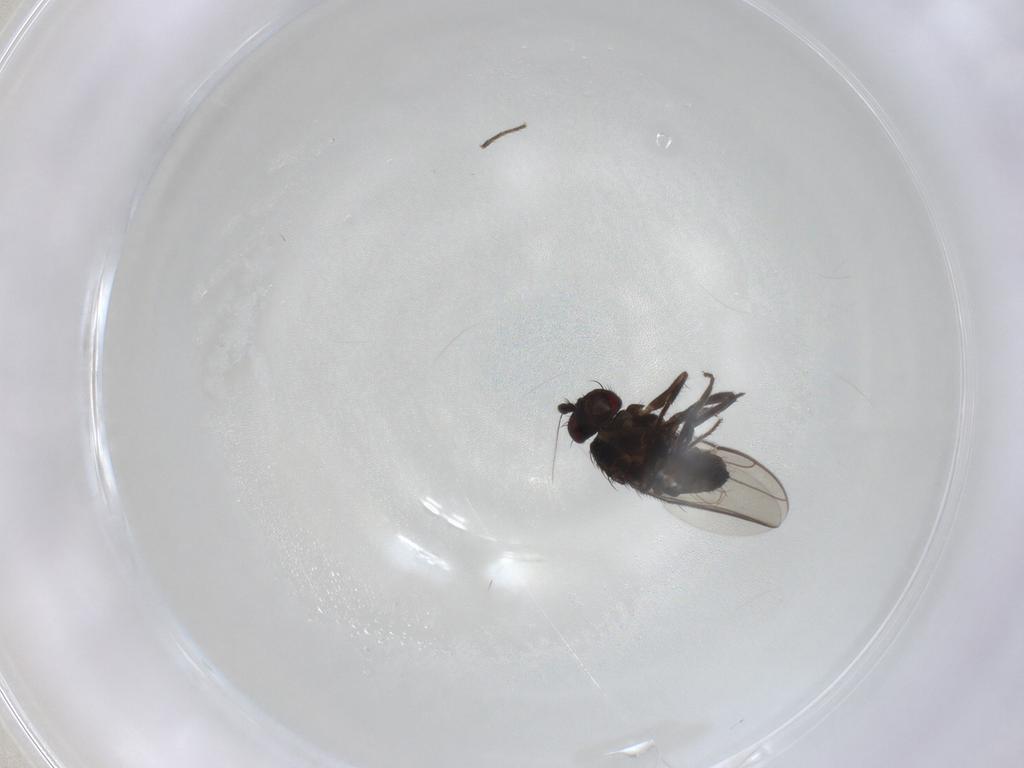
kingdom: Animalia
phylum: Arthropoda
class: Insecta
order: Diptera
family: Sphaeroceridae
